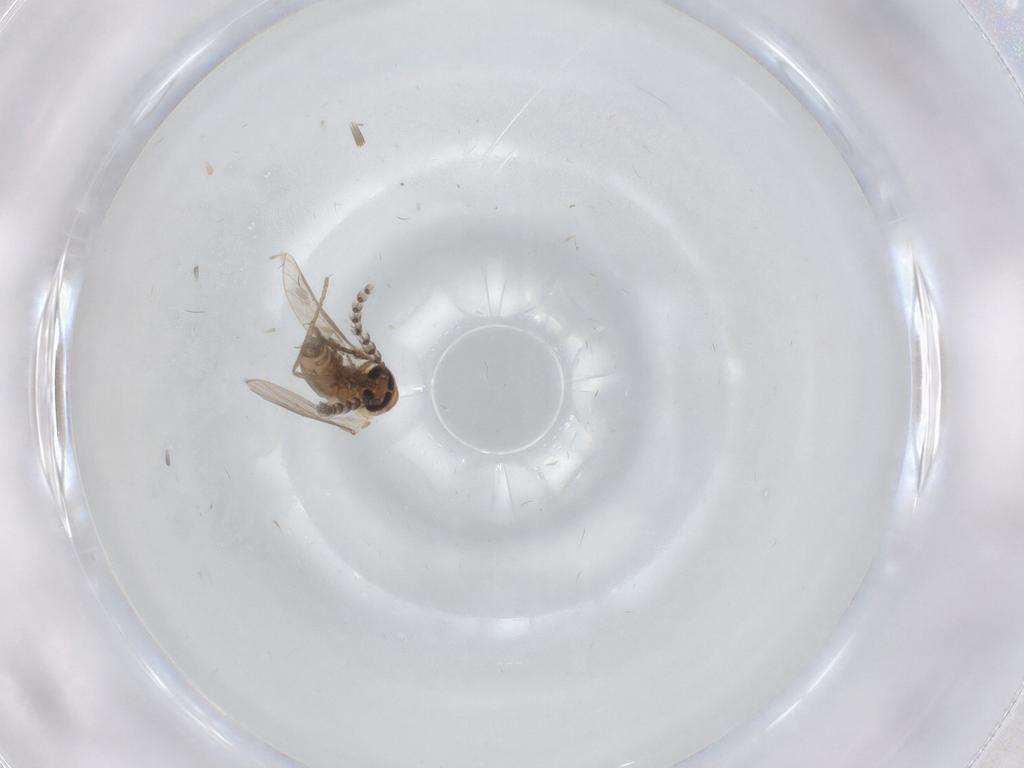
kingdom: Animalia
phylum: Arthropoda
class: Insecta
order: Diptera
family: Psychodidae
